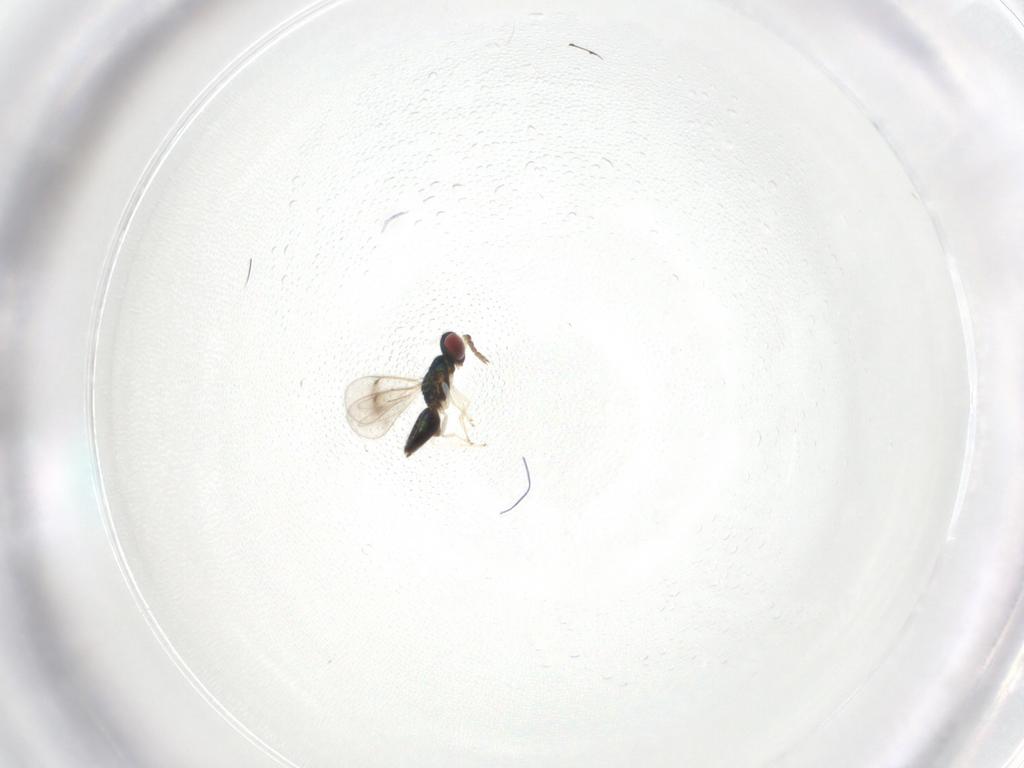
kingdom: Animalia
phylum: Arthropoda
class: Insecta
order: Hymenoptera
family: Eulophidae
